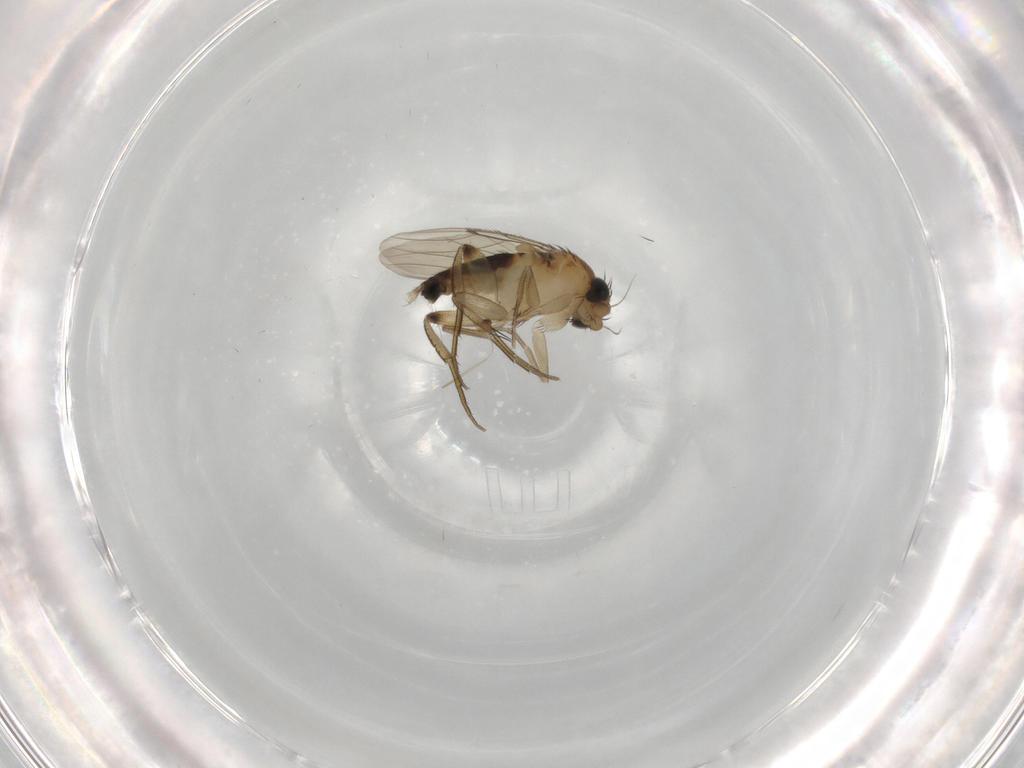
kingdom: Animalia
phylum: Arthropoda
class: Insecta
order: Diptera
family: Phoridae
